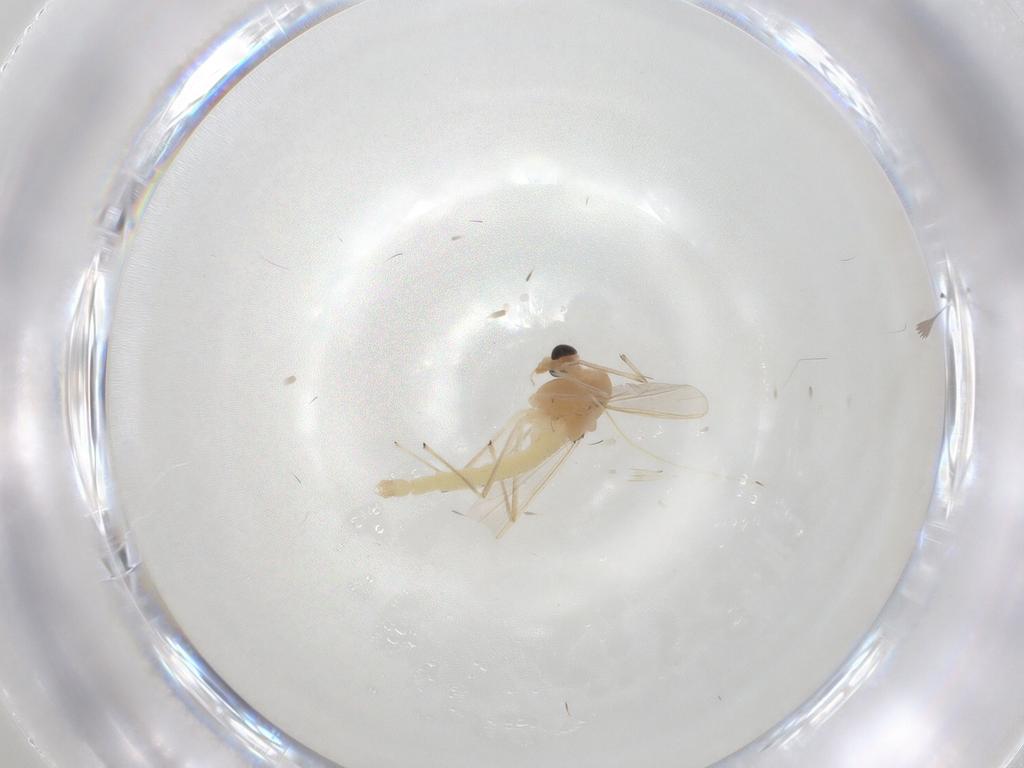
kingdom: Animalia
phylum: Arthropoda
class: Insecta
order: Diptera
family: Chironomidae
